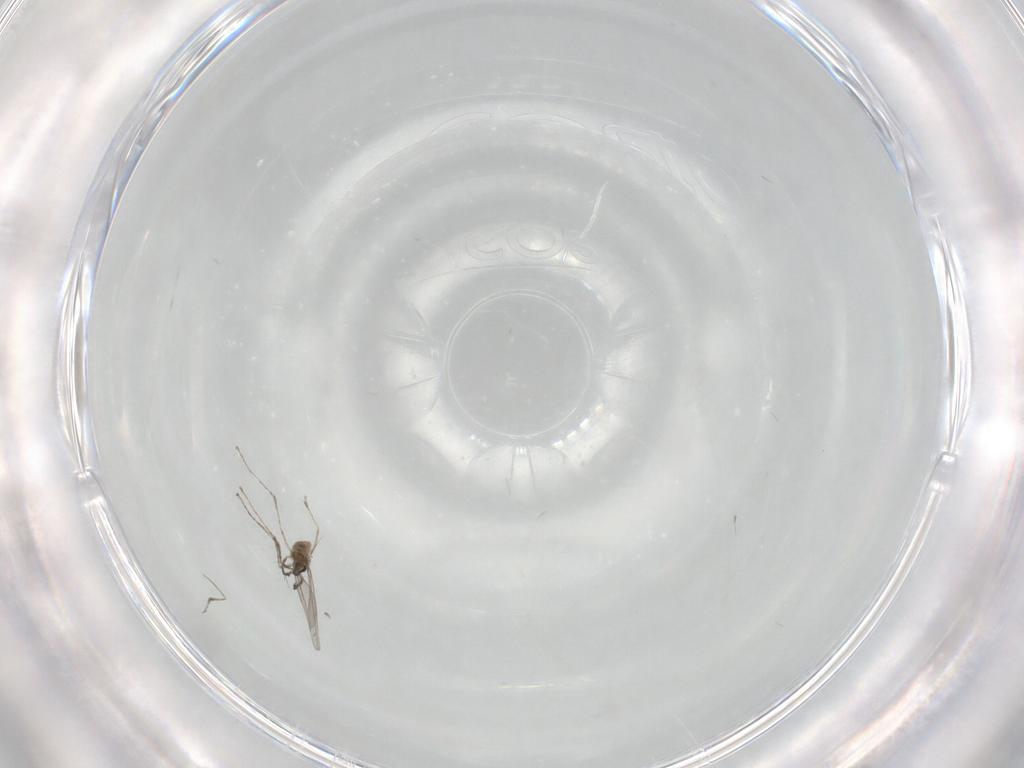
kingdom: Animalia
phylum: Arthropoda
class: Insecta
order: Diptera
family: Cecidomyiidae
